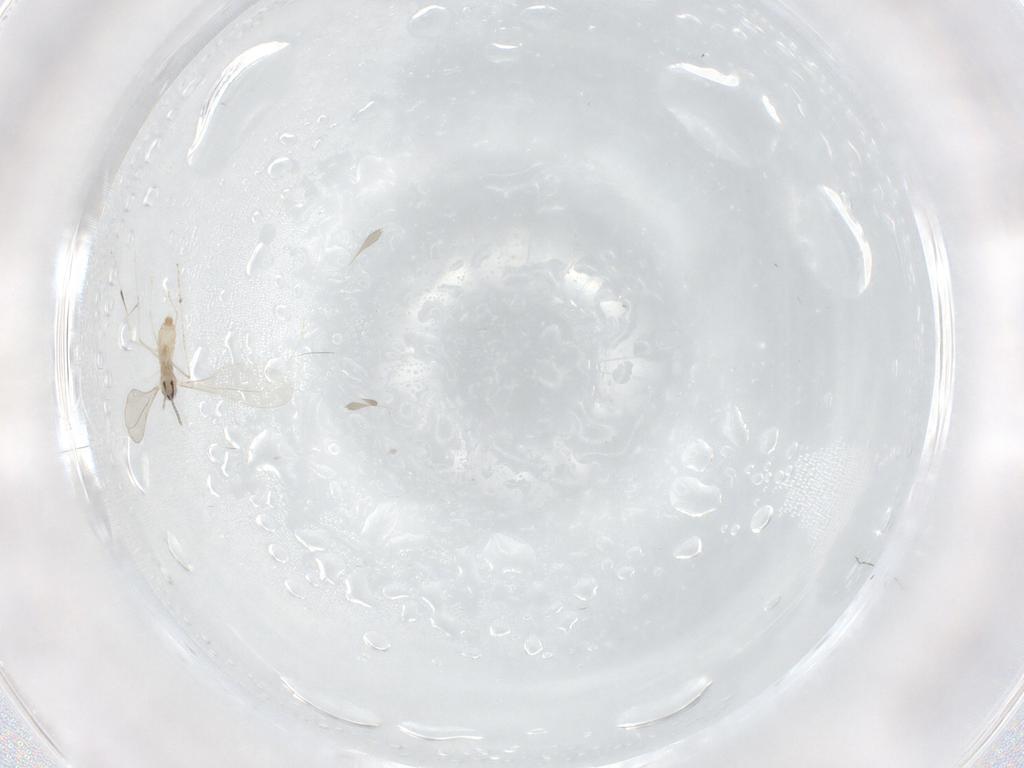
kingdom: Animalia
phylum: Arthropoda
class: Insecta
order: Diptera
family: Cecidomyiidae
